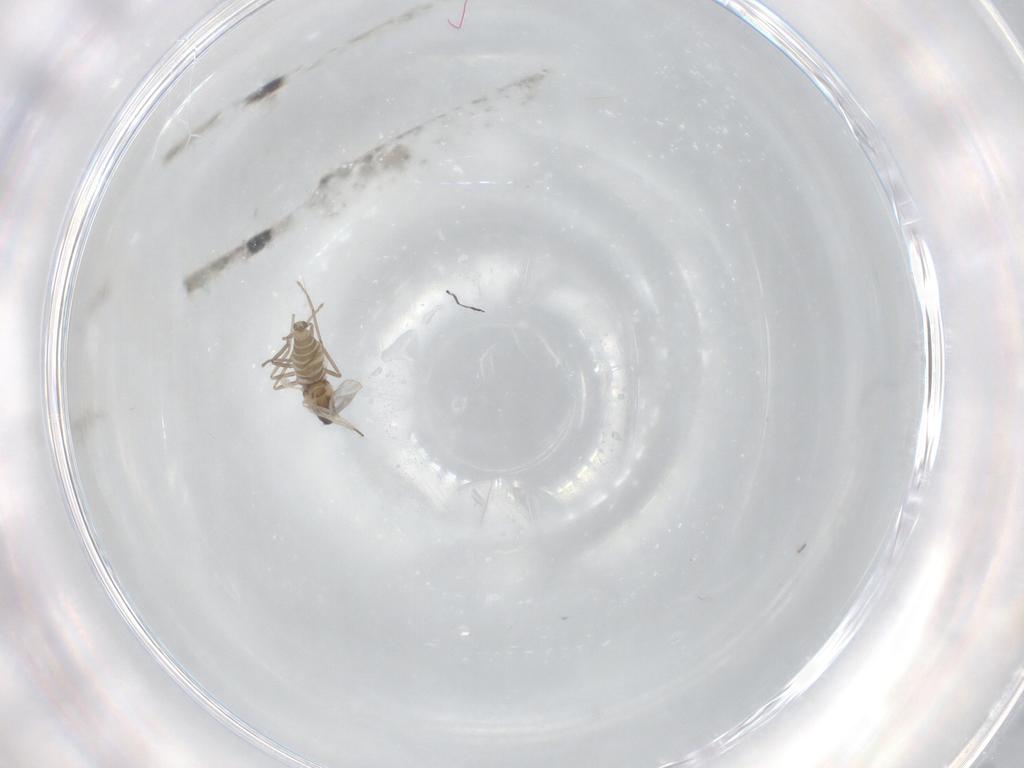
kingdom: Animalia
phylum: Arthropoda
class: Insecta
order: Diptera
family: Cecidomyiidae
